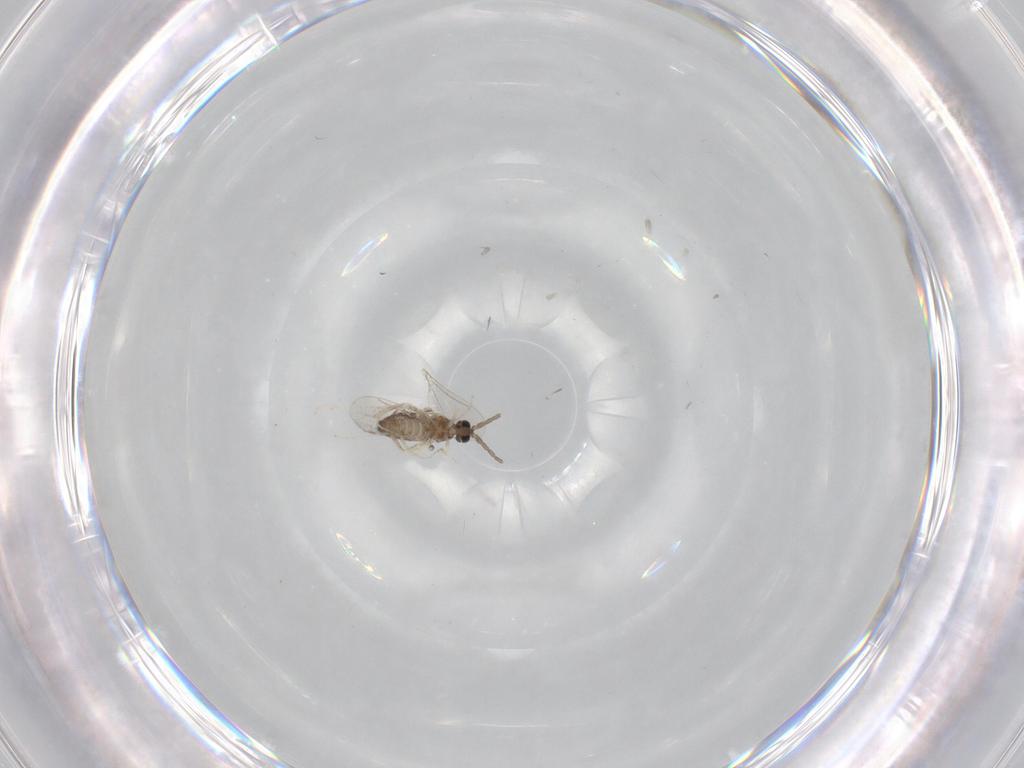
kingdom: Animalia
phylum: Arthropoda
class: Insecta
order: Diptera
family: Cecidomyiidae
